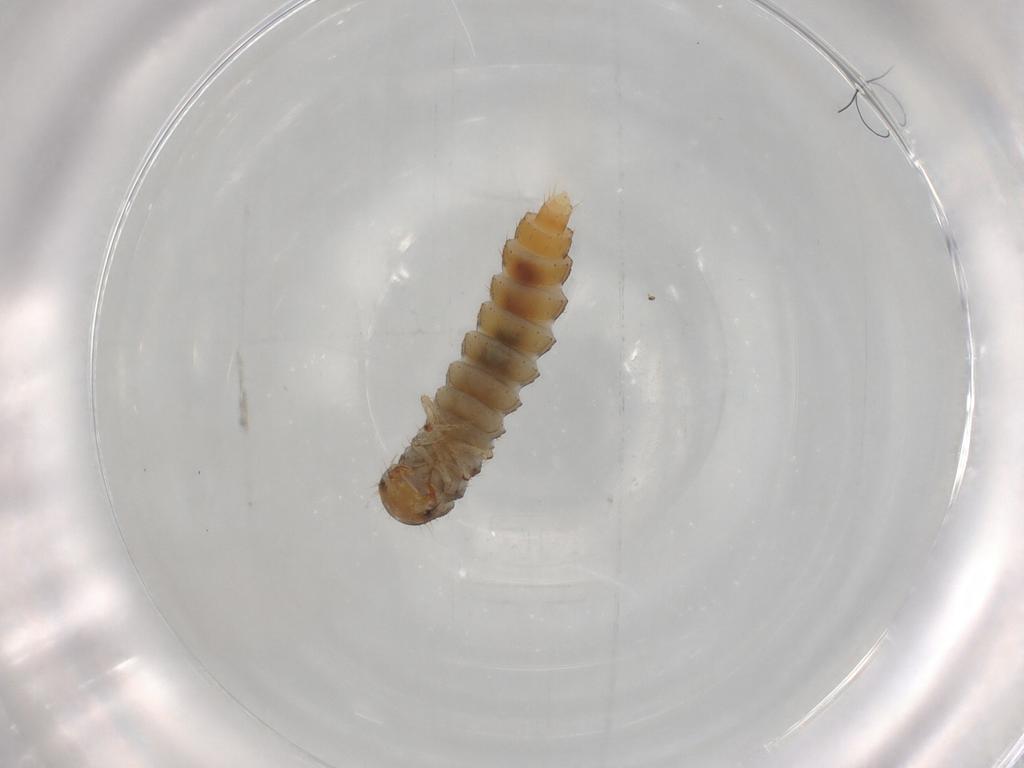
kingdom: Animalia
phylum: Arthropoda
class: Insecta
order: Coleoptera
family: Staphylinidae
